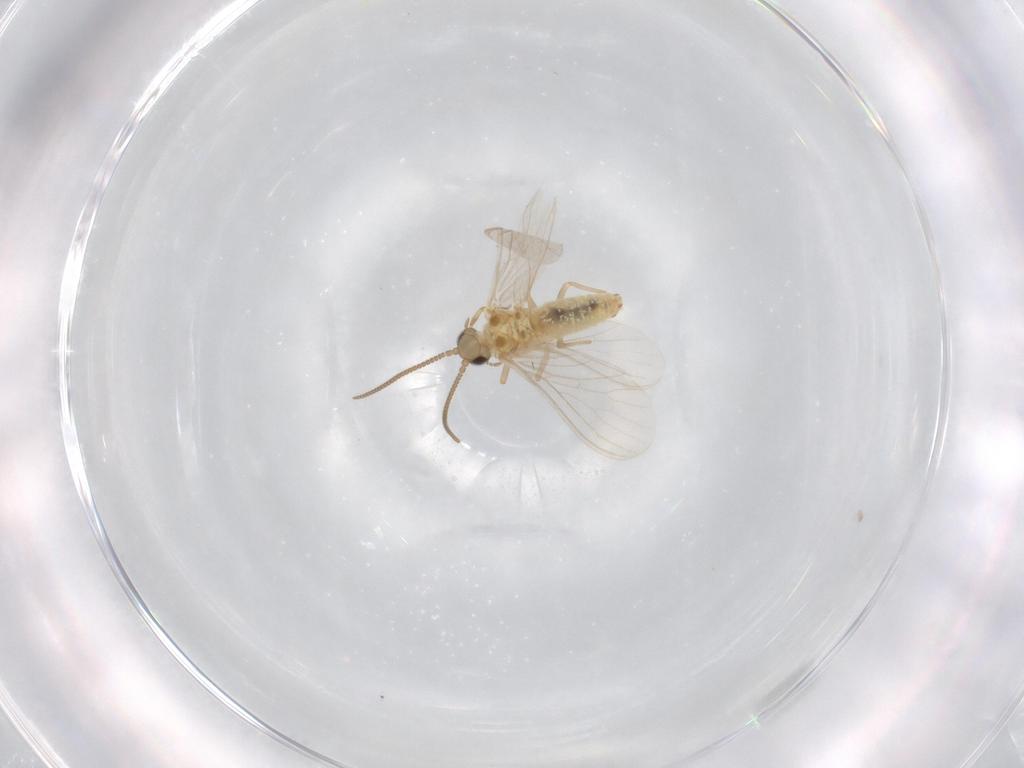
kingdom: Animalia
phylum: Arthropoda
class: Insecta
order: Neuroptera
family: Coniopterygidae
